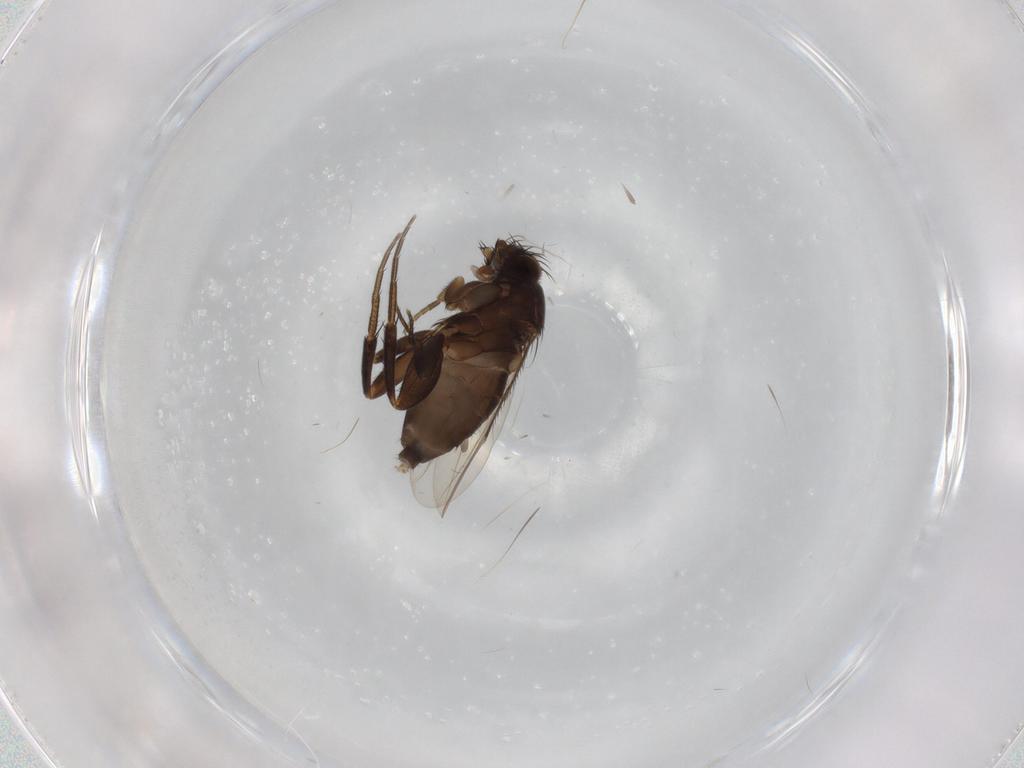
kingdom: Animalia
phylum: Arthropoda
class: Insecta
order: Diptera
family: Phoridae
